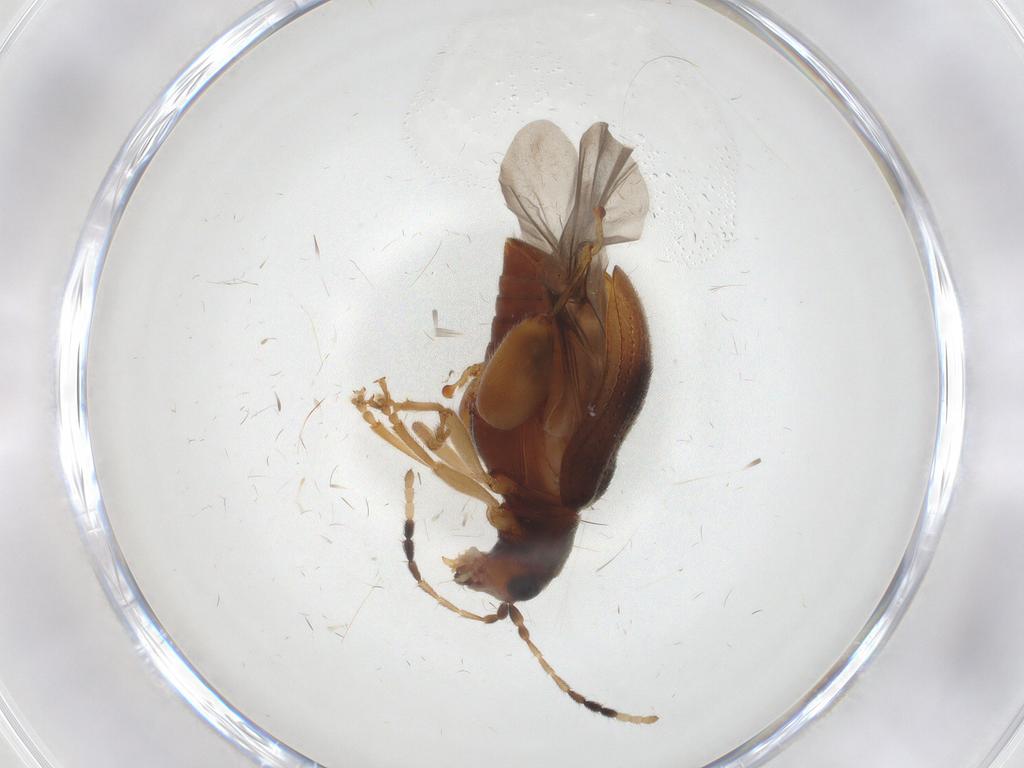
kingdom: Animalia
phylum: Arthropoda
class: Insecta
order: Coleoptera
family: Chrysomelidae
